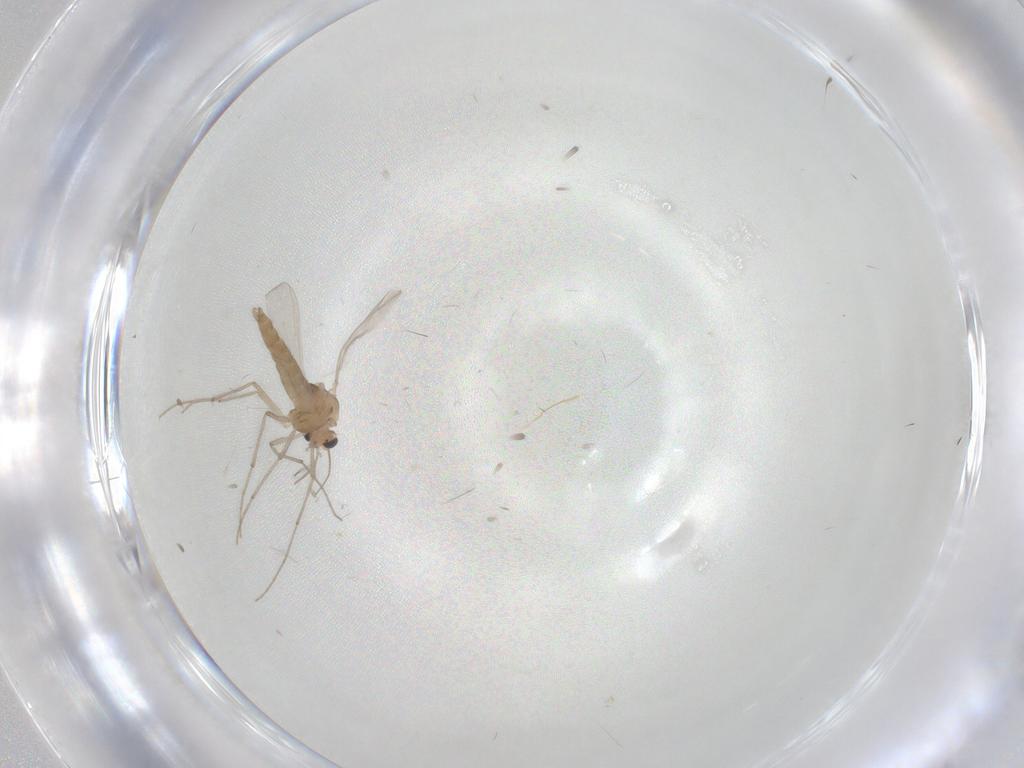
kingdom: Animalia
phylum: Arthropoda
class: Insecta
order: Diptera
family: Chironomidae
